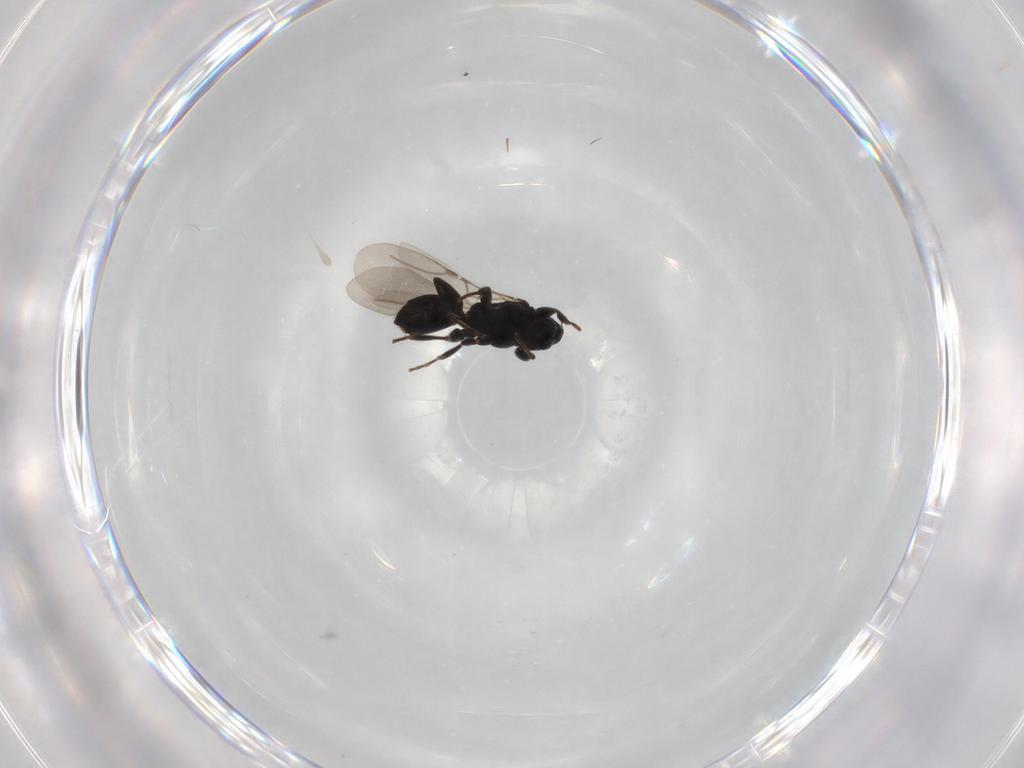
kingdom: Animalia
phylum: Arthropoda
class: Insecta
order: Hymenoptera
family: Bethylidae
